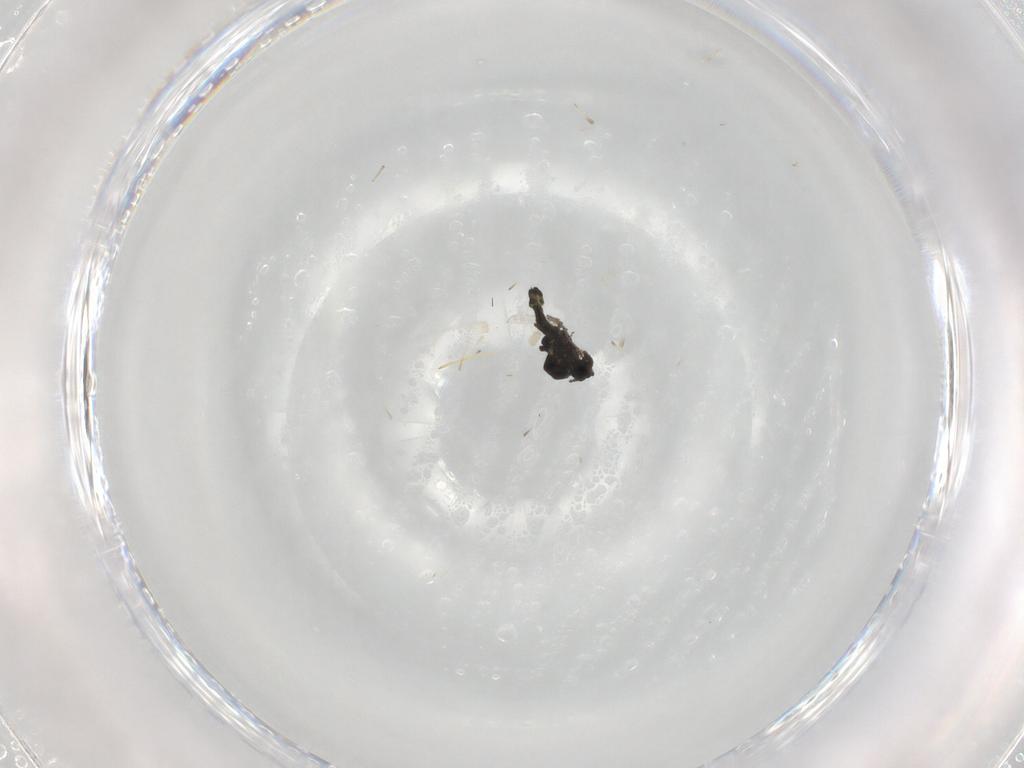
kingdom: Animalia
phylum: Arthropoda
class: Insecta
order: Diptera
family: Ceratopogonidae
